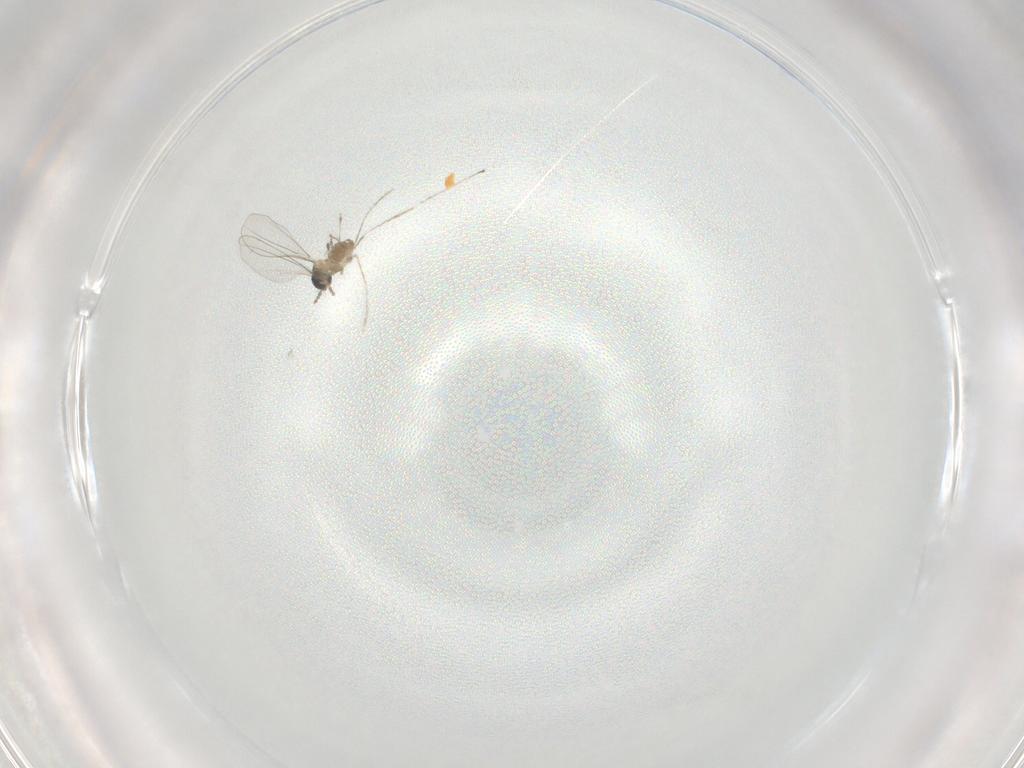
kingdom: Animalia
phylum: Arthropoda
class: Insecta
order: Diptera
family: Cecidomyiidae
